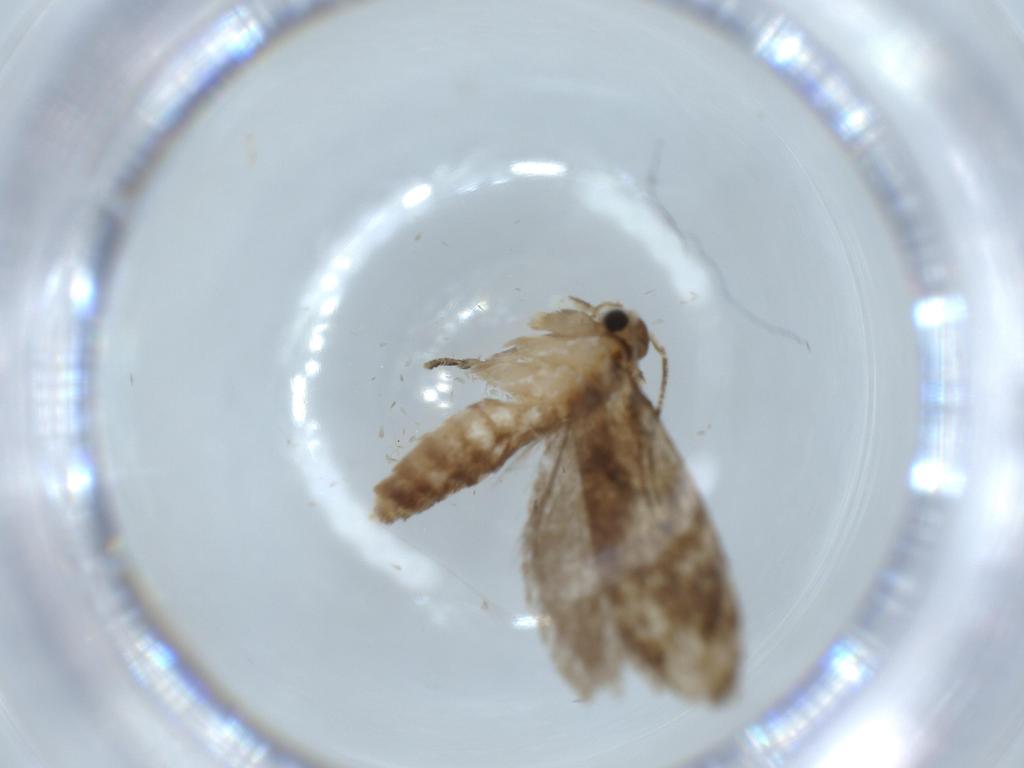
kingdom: Animalia
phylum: Arthropoda
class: Insecta
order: Lepidoptera
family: Tineidae
